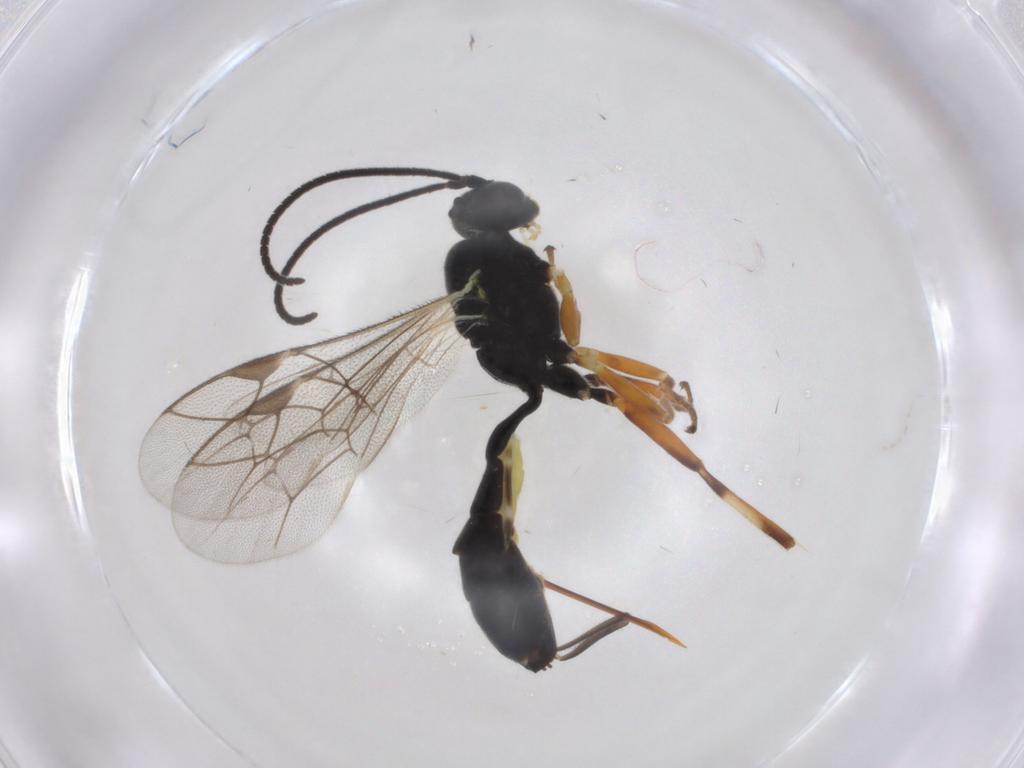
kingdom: Animalia
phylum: Arthropoda
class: Insecta
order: Hymenoptera
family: Ichneumonidae
